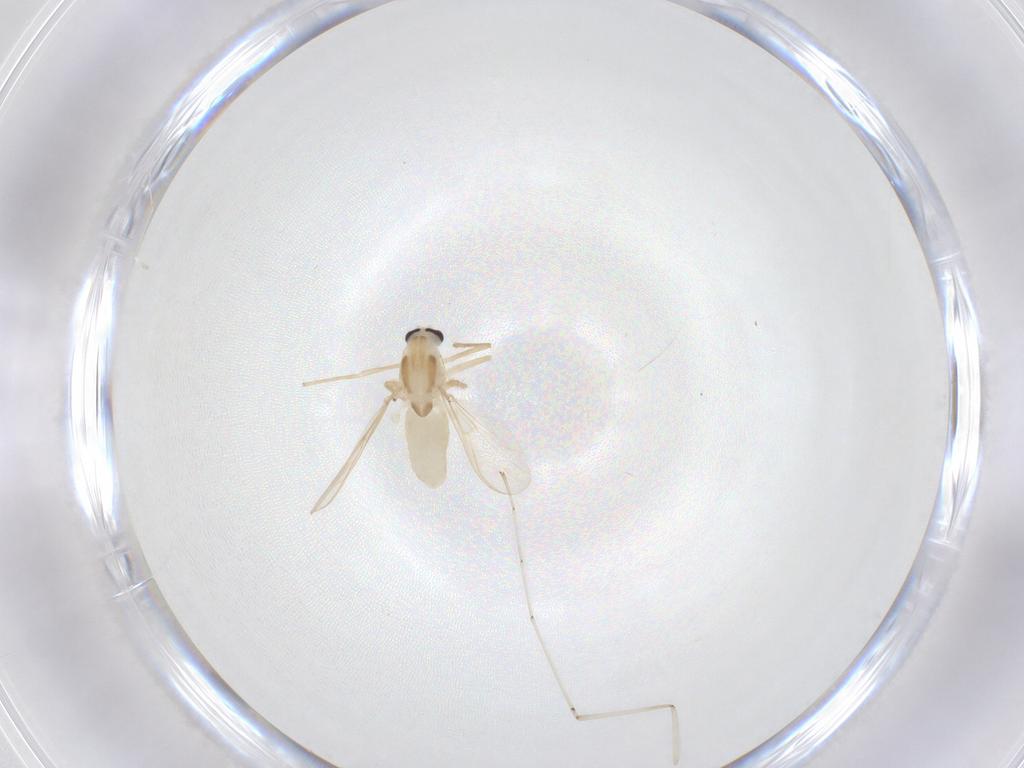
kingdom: Animalia
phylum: Arthropoda
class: Insecta
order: Diptera
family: Chironomidae
